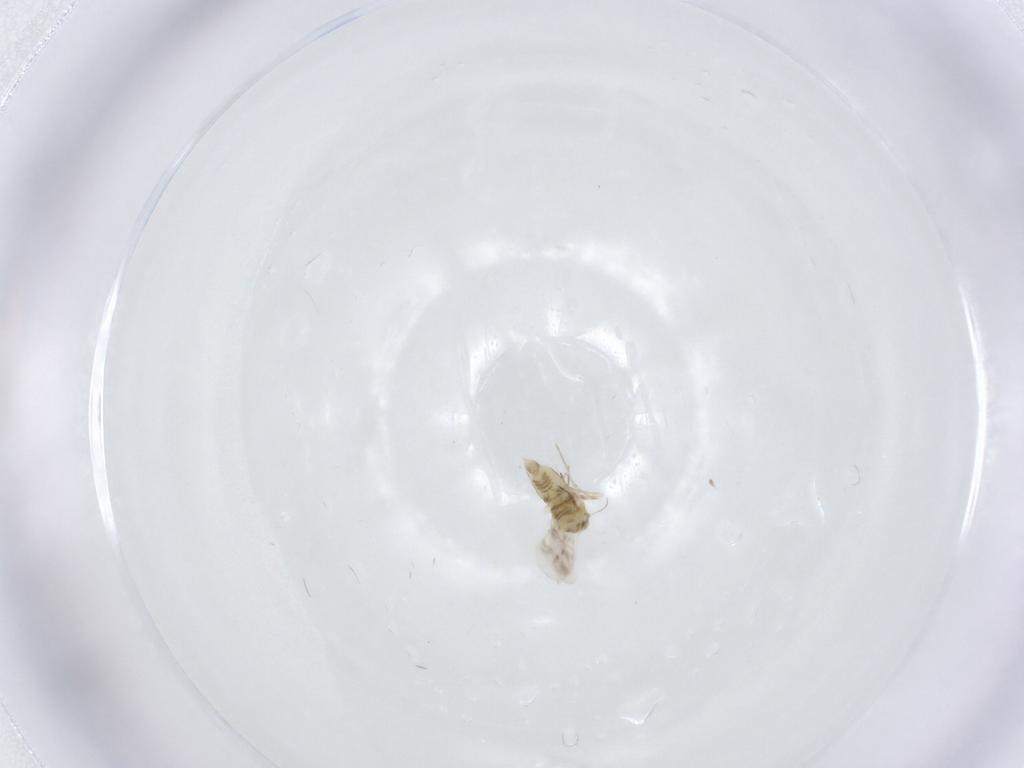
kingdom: Animalia
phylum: Arthropoda
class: Insecta
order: Hemiptera
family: Aleyrodidae
